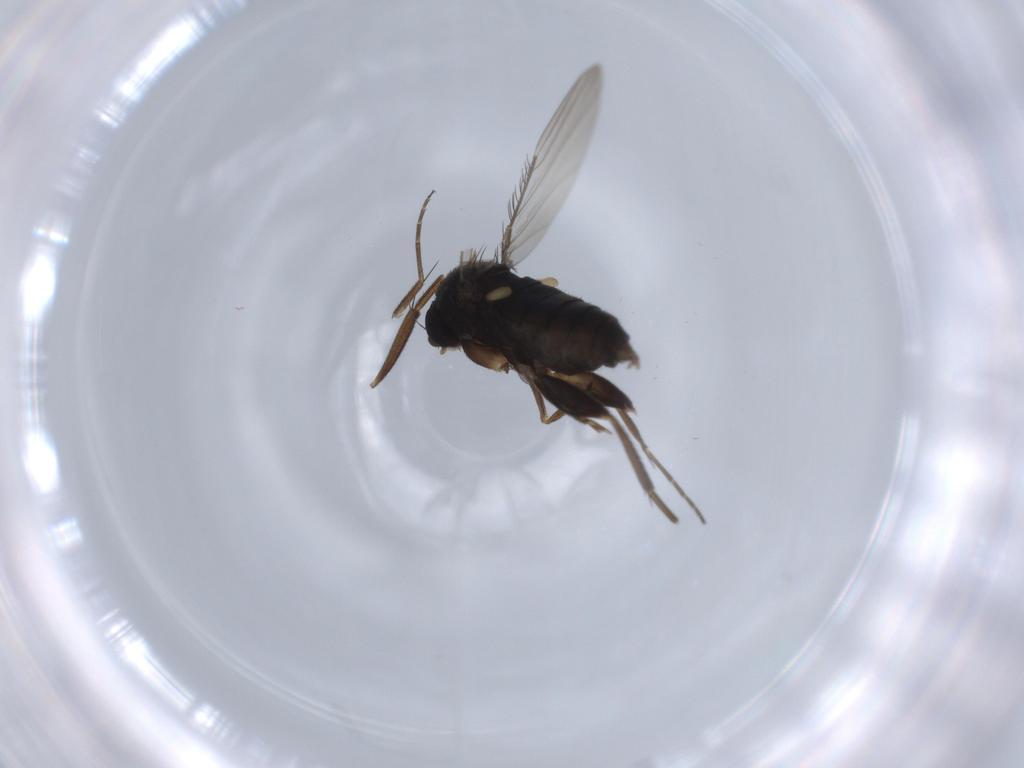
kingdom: Animalia
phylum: Arthropoda
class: Insecta
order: Diptera
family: Phoridae
